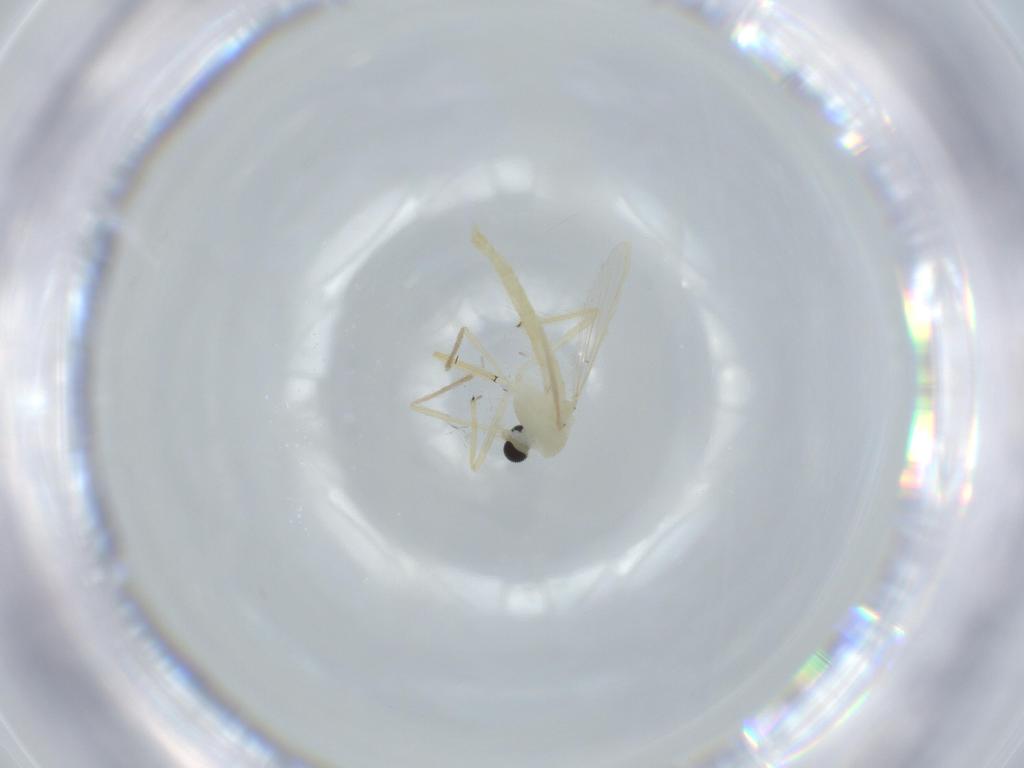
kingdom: Animalia
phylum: Arthropoda
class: Insecta
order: Diptera
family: Chironomidae
